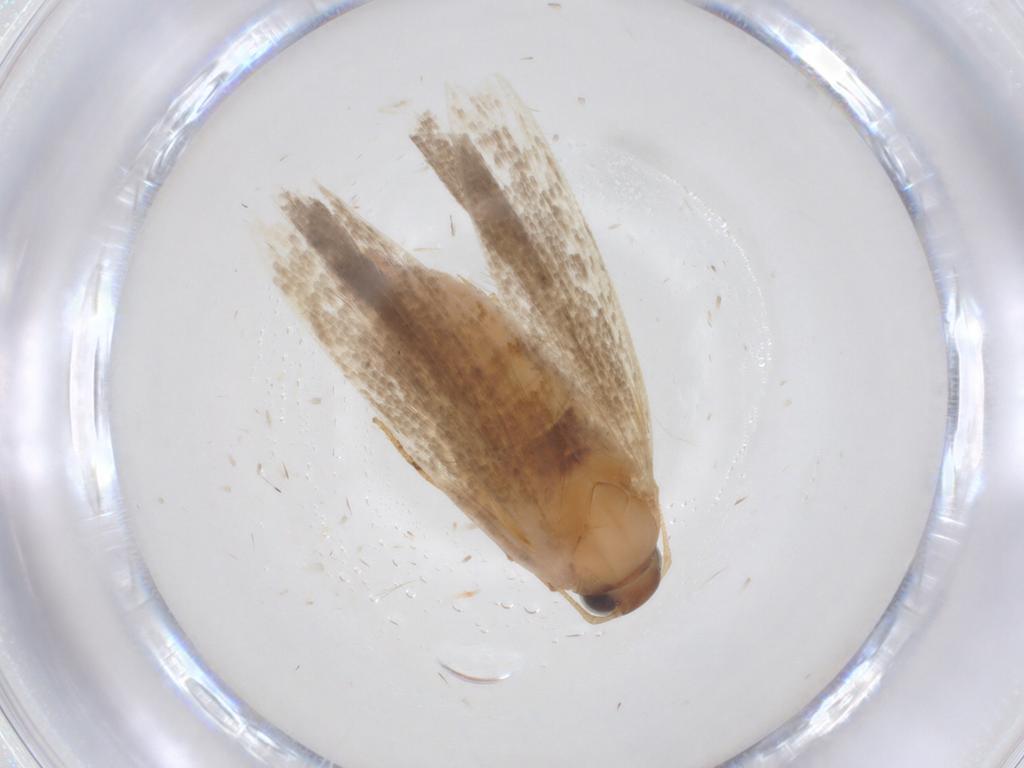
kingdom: Animalia
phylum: Arthropoda
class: Insecta
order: Lepidoptera
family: Gelechiidae
